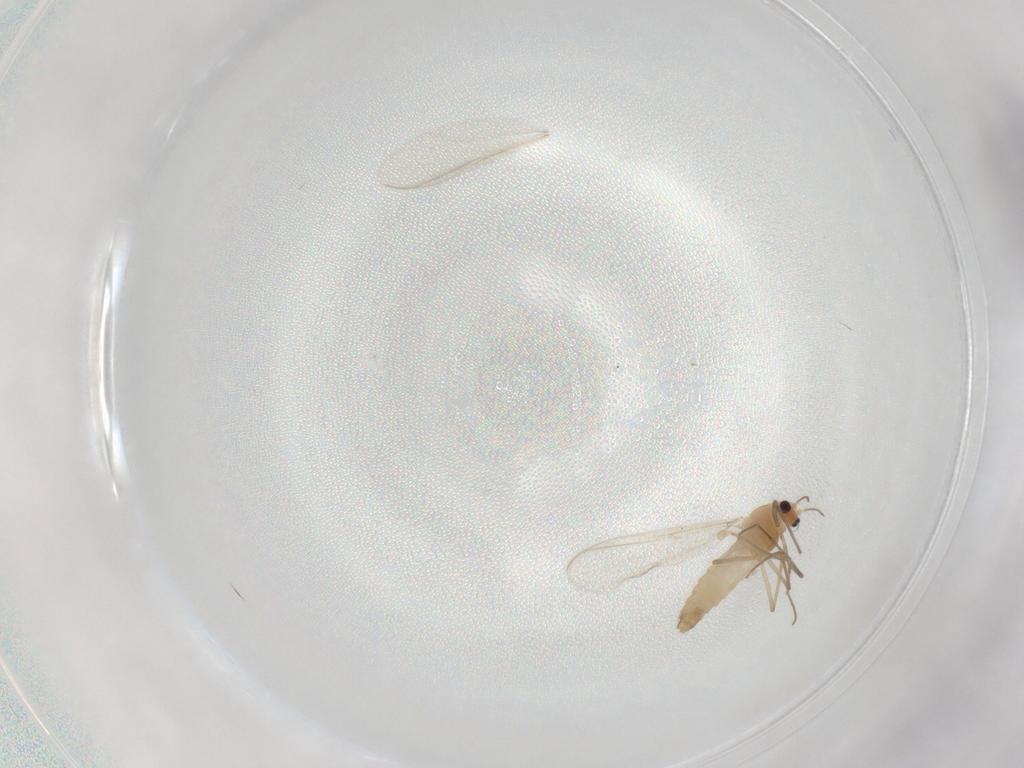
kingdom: Animalia
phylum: Arthropoda
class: Insecta
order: Diptera
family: Chironomidae
